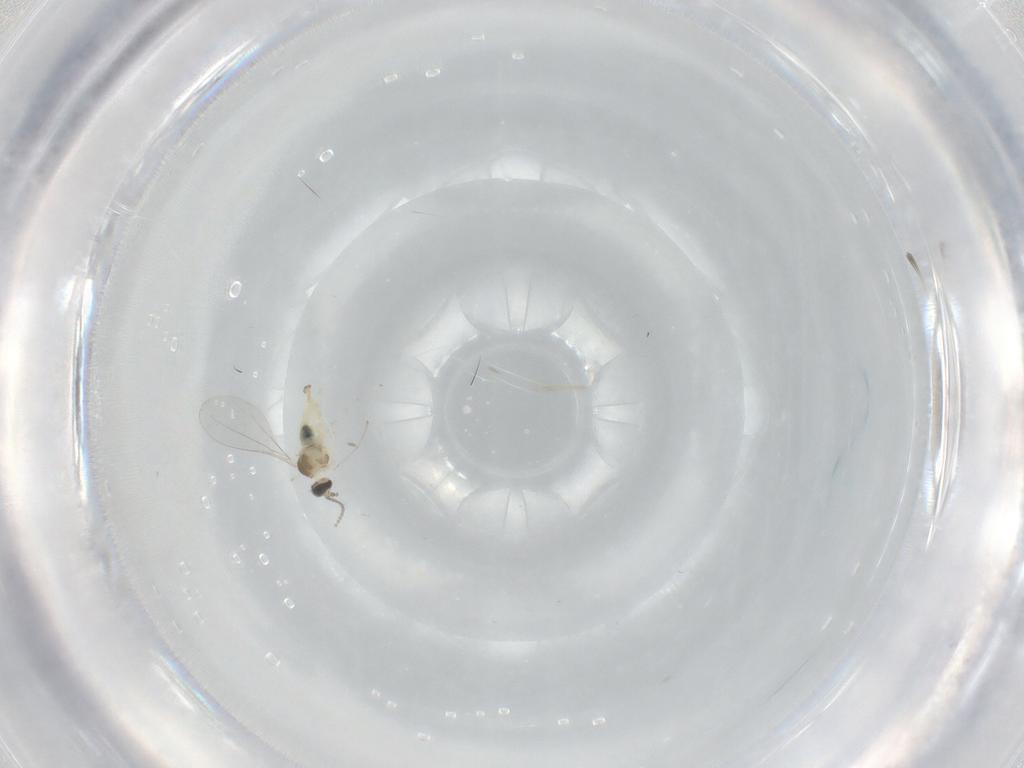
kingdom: Animalia
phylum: Arthropoda
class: Insecta
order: Diptera
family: Cecidomyiidae
